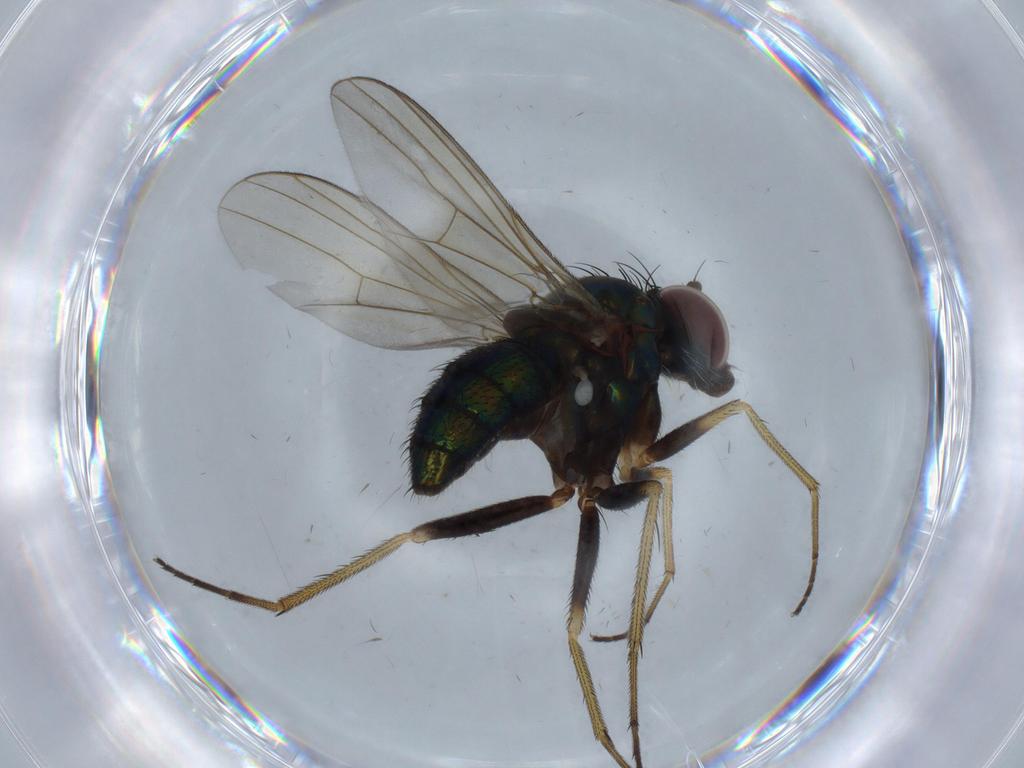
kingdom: Animalia
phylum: Arthropoda
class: Insecta
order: Diptera
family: Dolichopodidae
